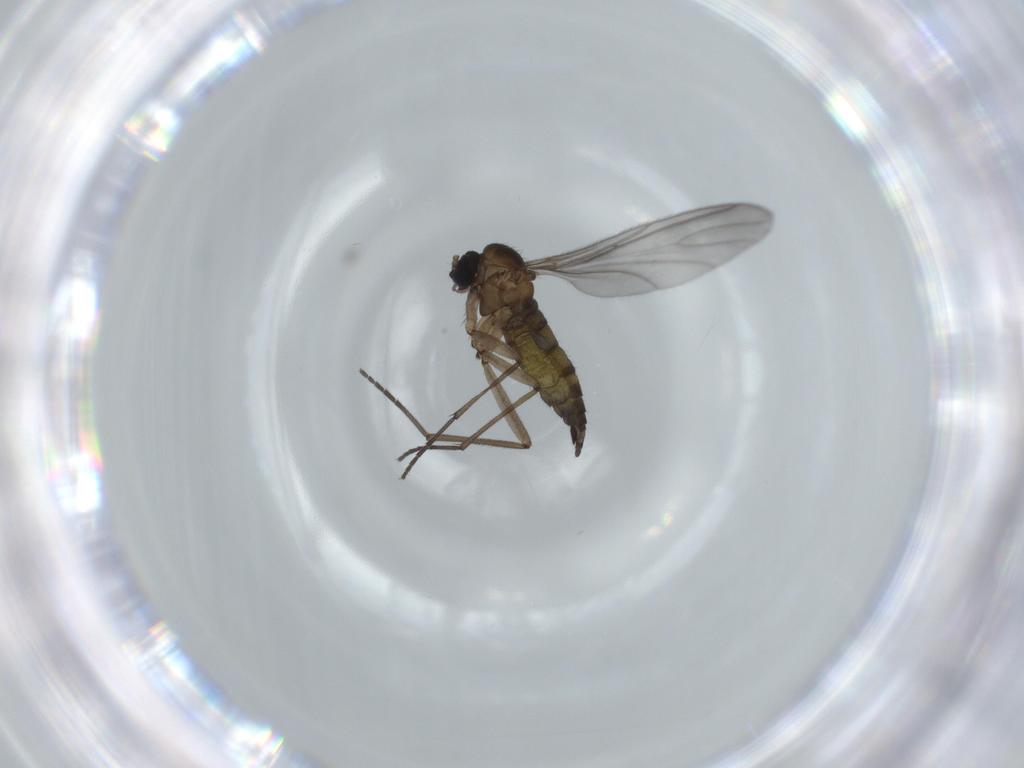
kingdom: Animalia
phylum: Arthropoda
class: Insecta
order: Diptera
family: Sciaridae
